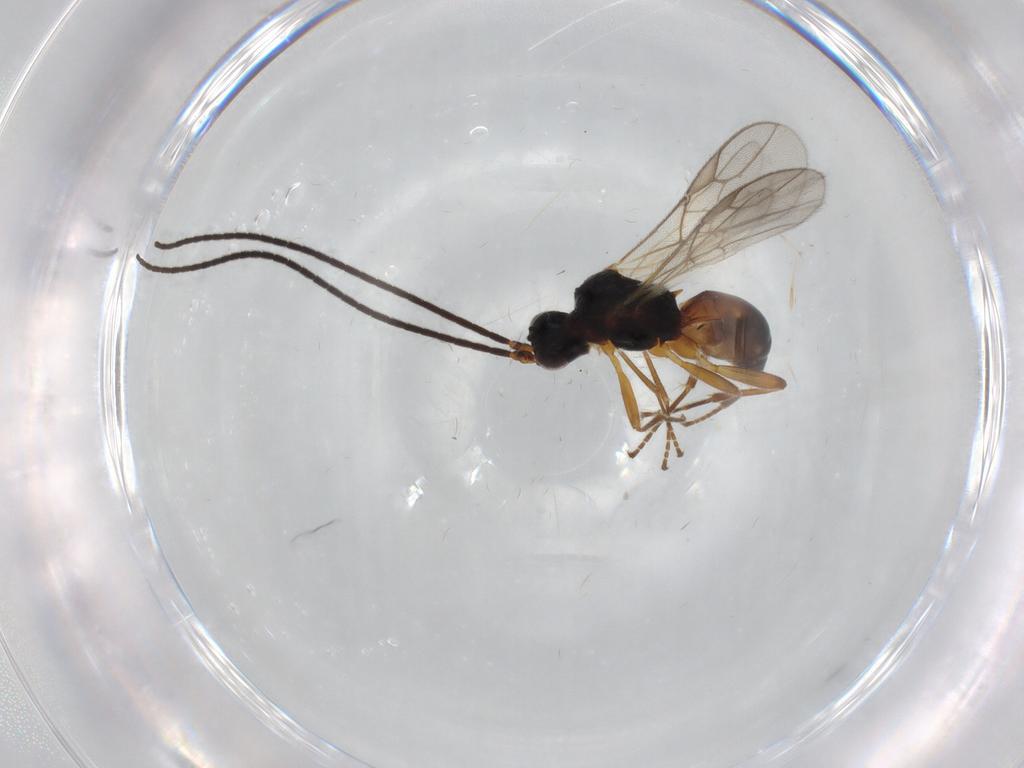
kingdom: Animalia
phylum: Arthropoda
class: Insecta
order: Hymenoptera
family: Braconidae
